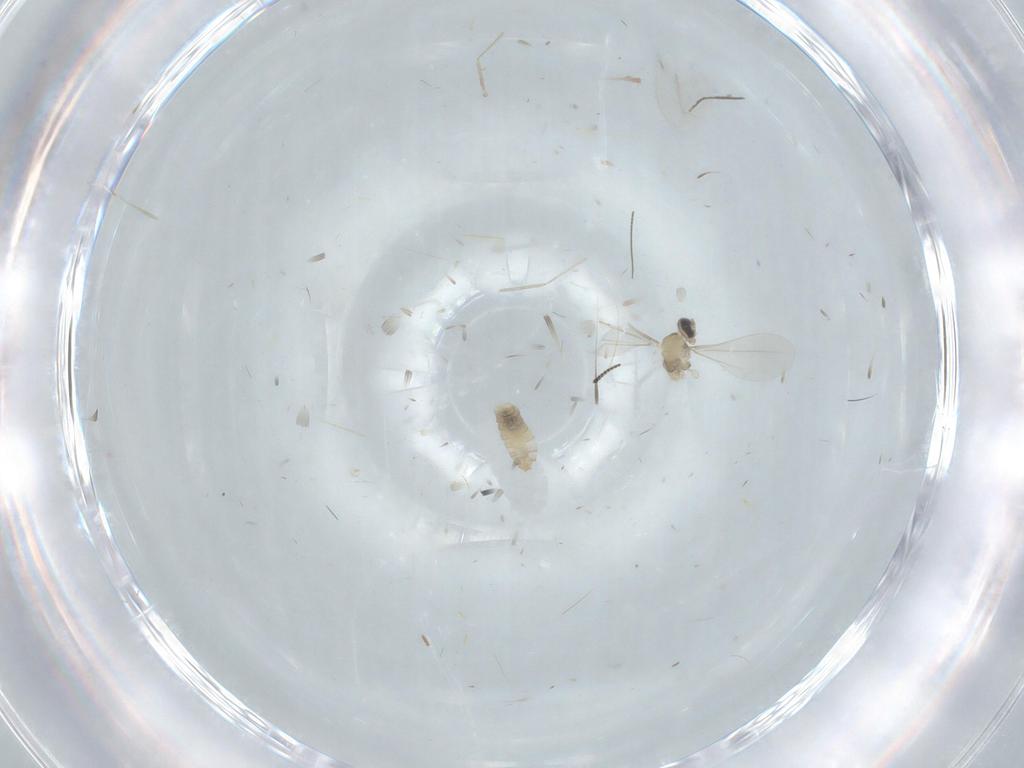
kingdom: Animalia
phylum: Arthropoda
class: Insecta
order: Diptera
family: Cecidomyiidae
